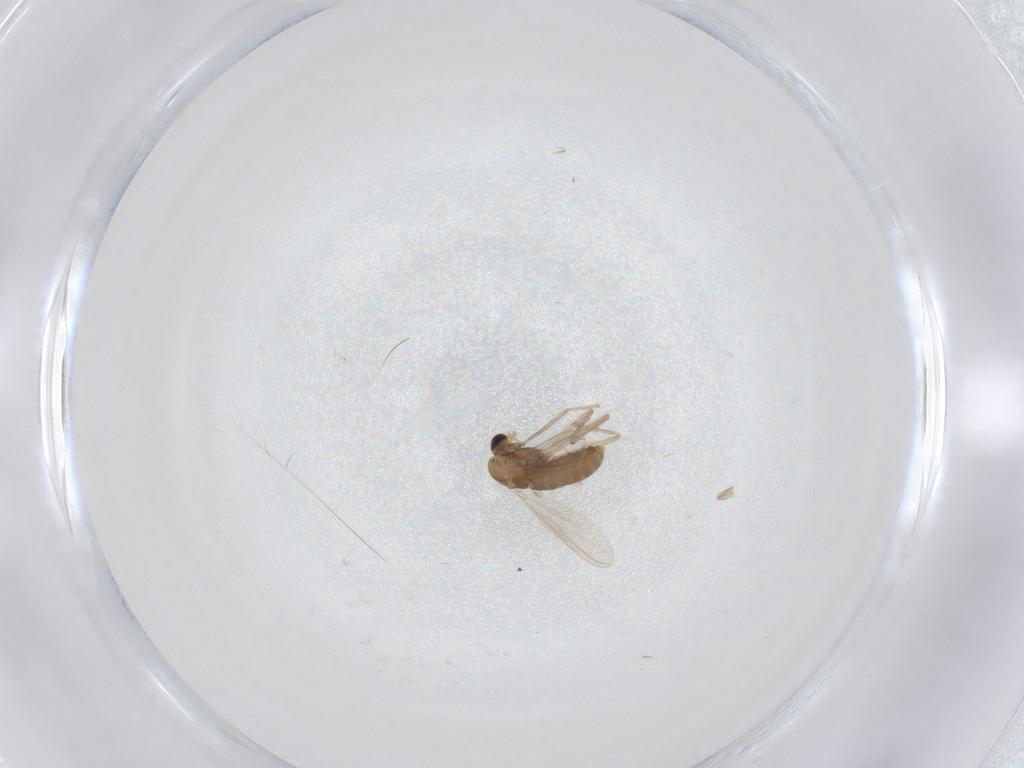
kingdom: Animalia
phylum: Arthropoda
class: Insecta
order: Diptera
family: Chironomidae
